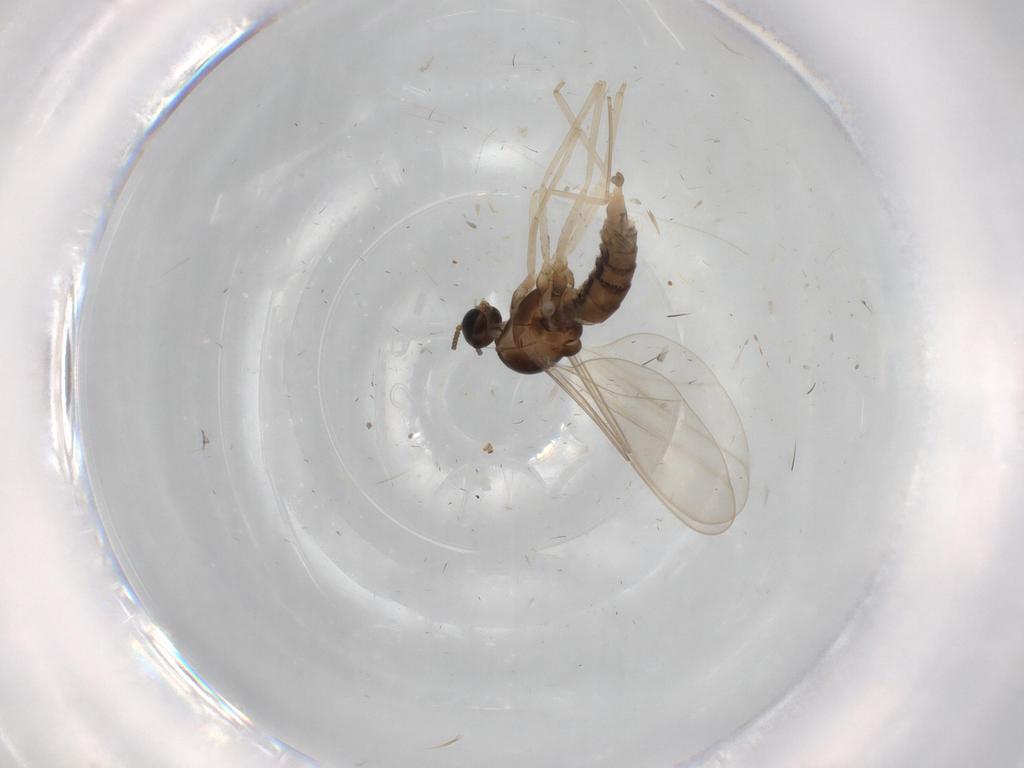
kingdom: Animalia
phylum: Arthropoda
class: Insecta
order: Diptera
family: Cecidomyiidae
